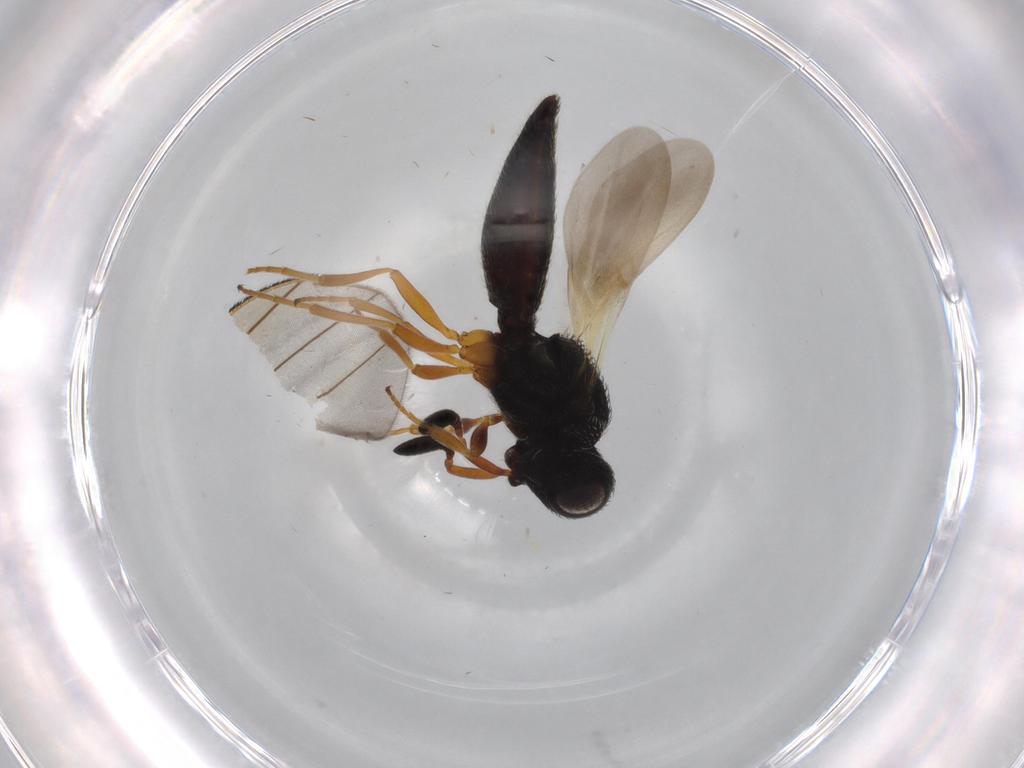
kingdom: Animalia
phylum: Arthropoda
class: Insecta
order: Hymenoptera
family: Scelionidae
